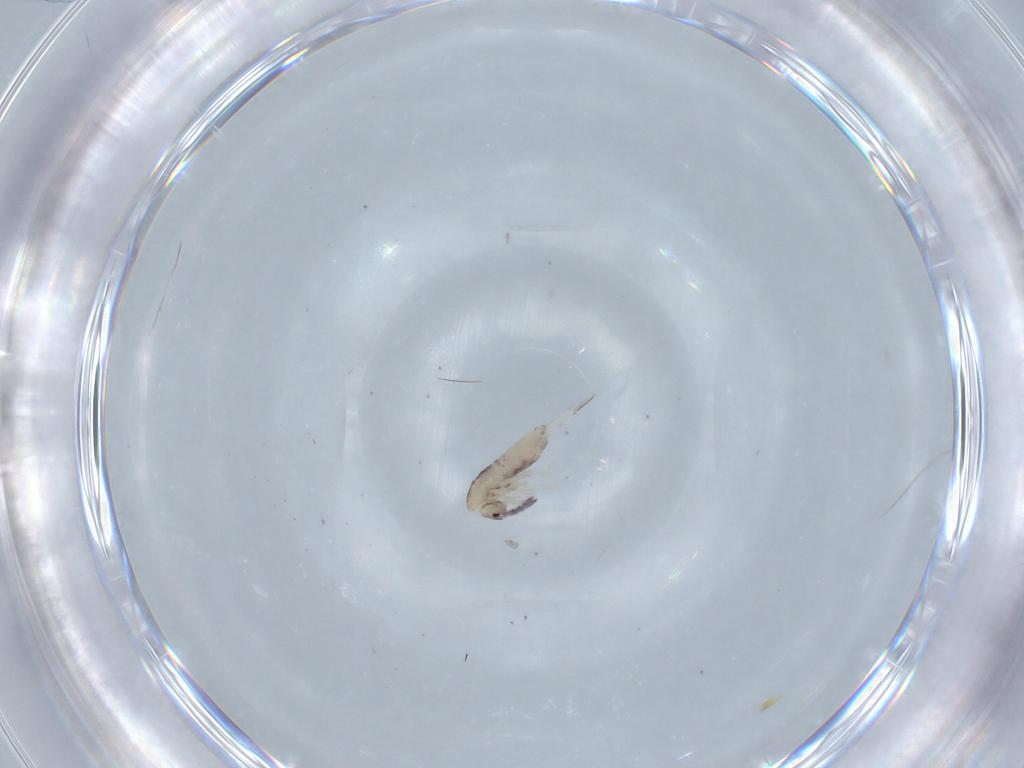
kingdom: Animalia
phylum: Arthropoda
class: Collembola
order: Entomobryomorpha
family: Entomobryidae
